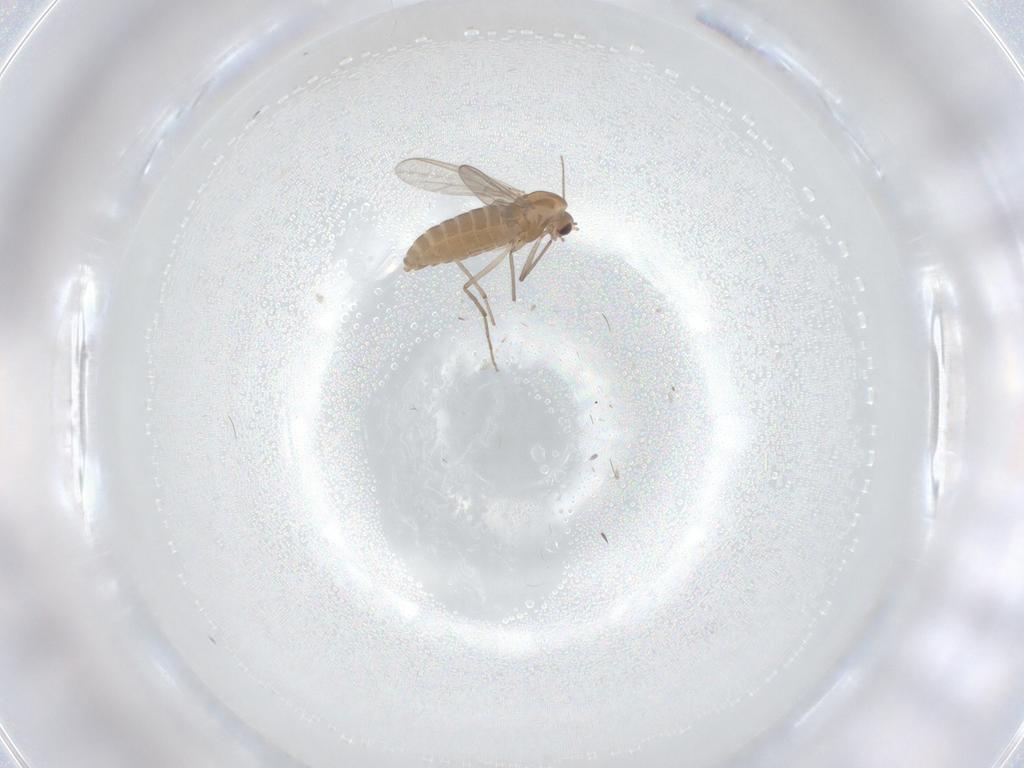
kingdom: Animalia
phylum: Arthropoda
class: Insecta
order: Diptera
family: Chironomidae
